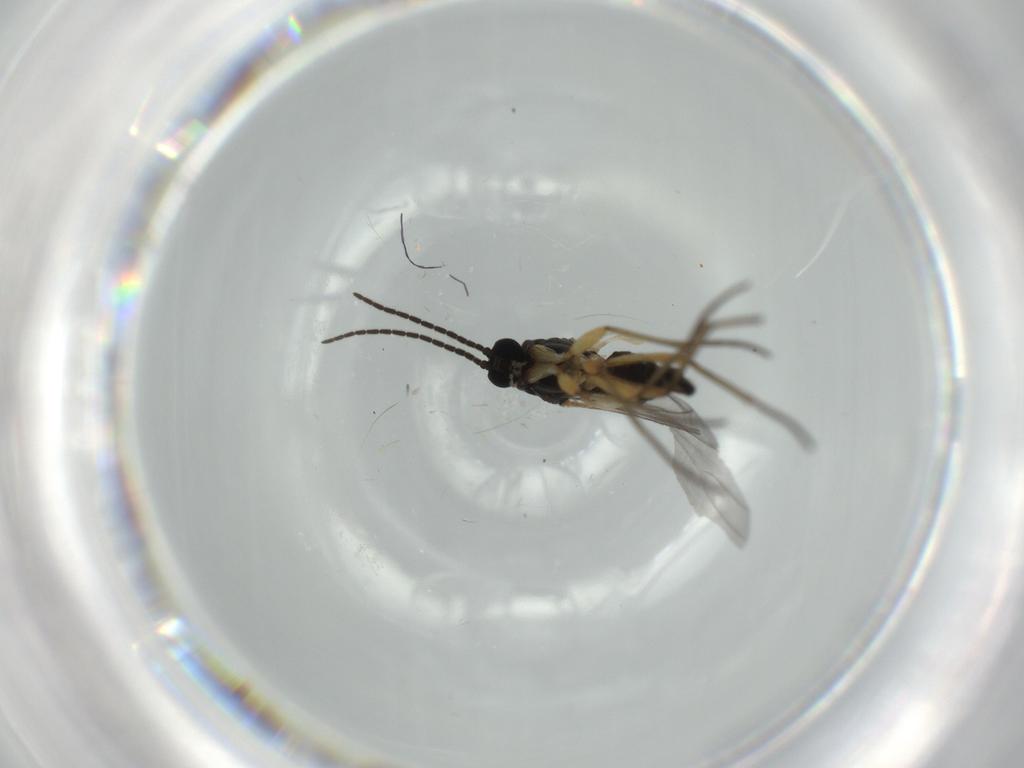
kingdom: Animalia
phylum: Arthropoda
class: Insecta
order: Diptera
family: Sciaridae
